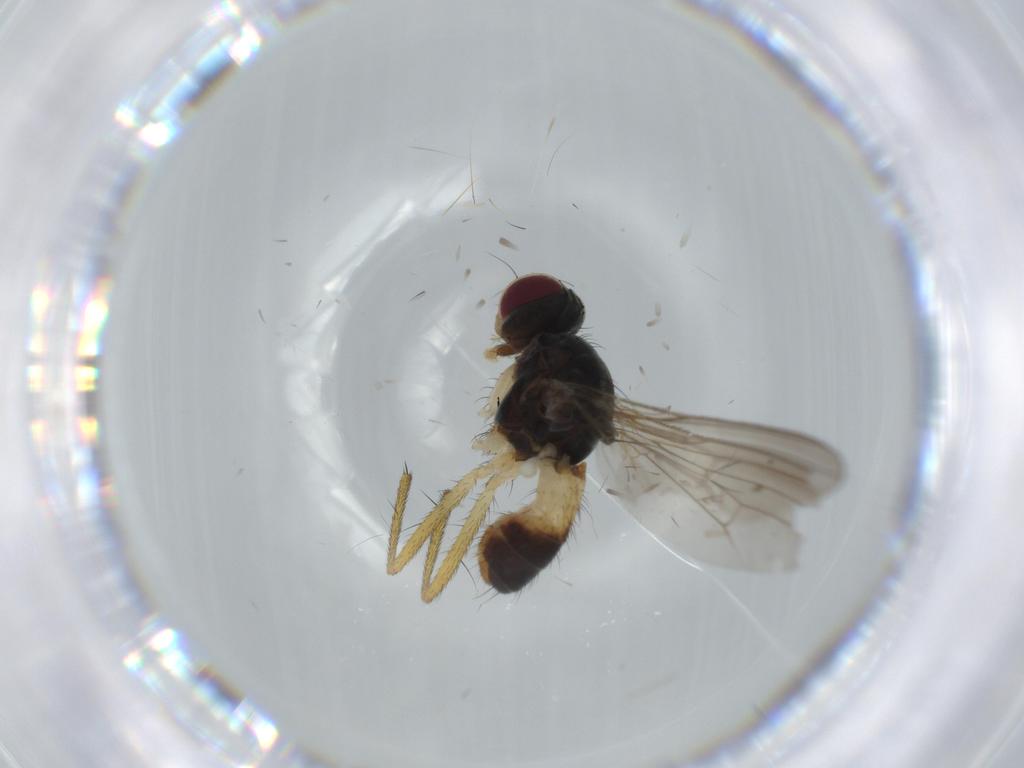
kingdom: Animalia
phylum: Arthropoda
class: Insecta
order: Diptera
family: Muscidae
